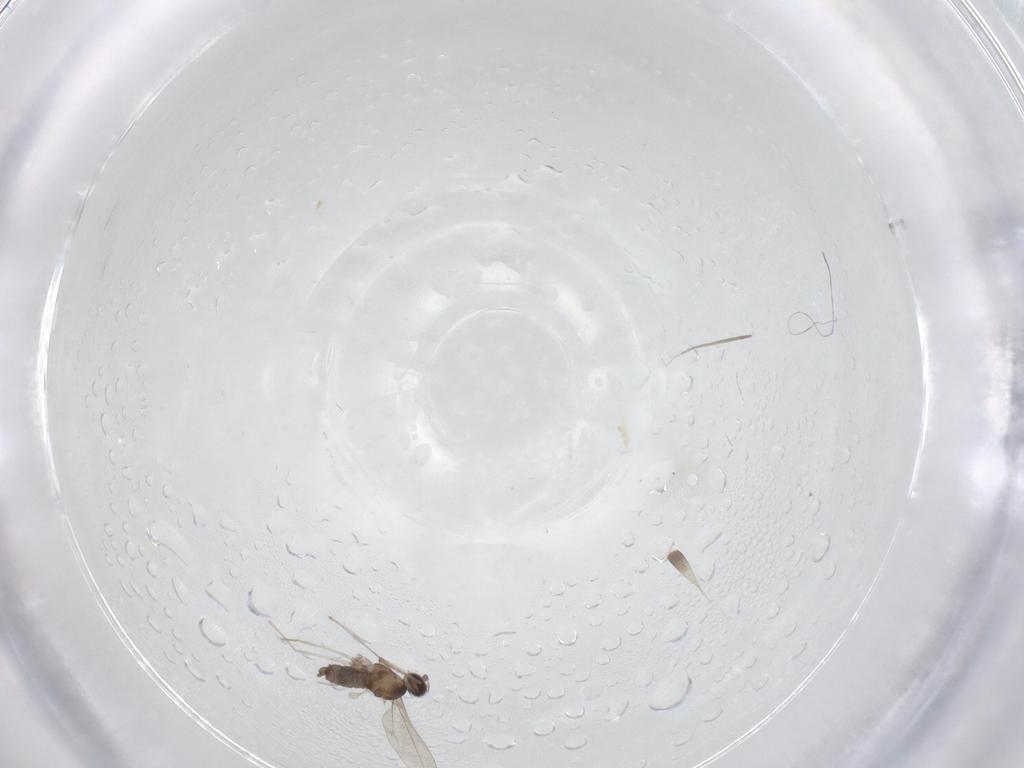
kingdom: Animalia
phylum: Arthropoda
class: Insecta
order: Diptera
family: Cecidomyiidae
